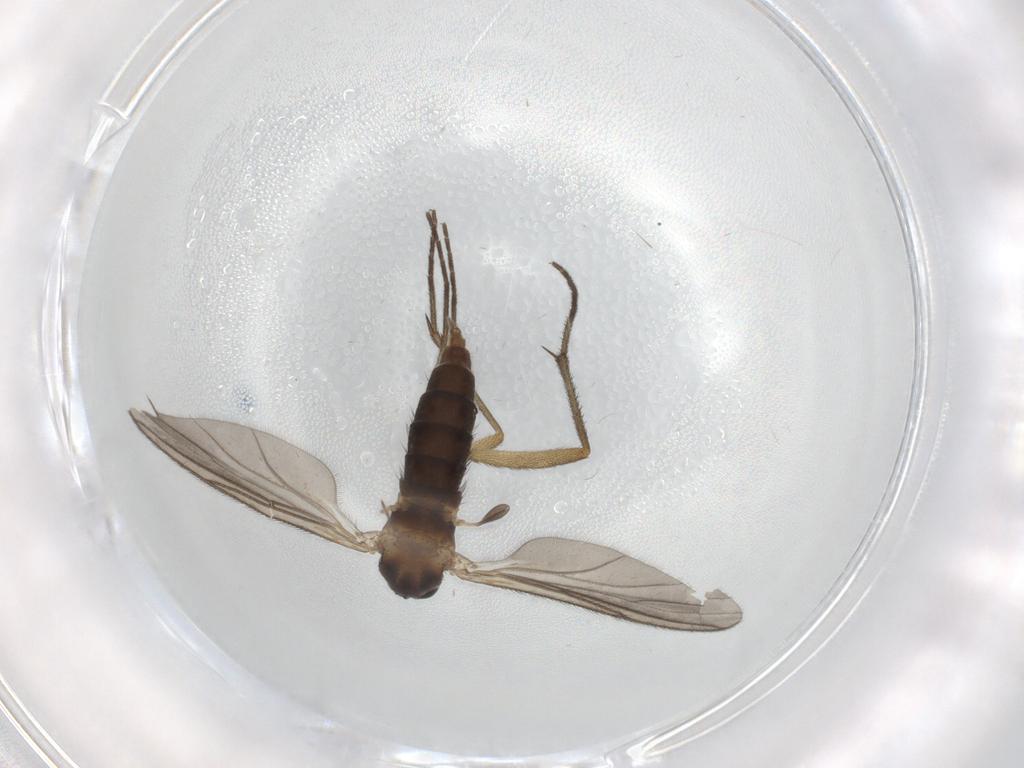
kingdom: Animalia
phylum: Arthropoda
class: Insecta
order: Diptera
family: Sciaridae
